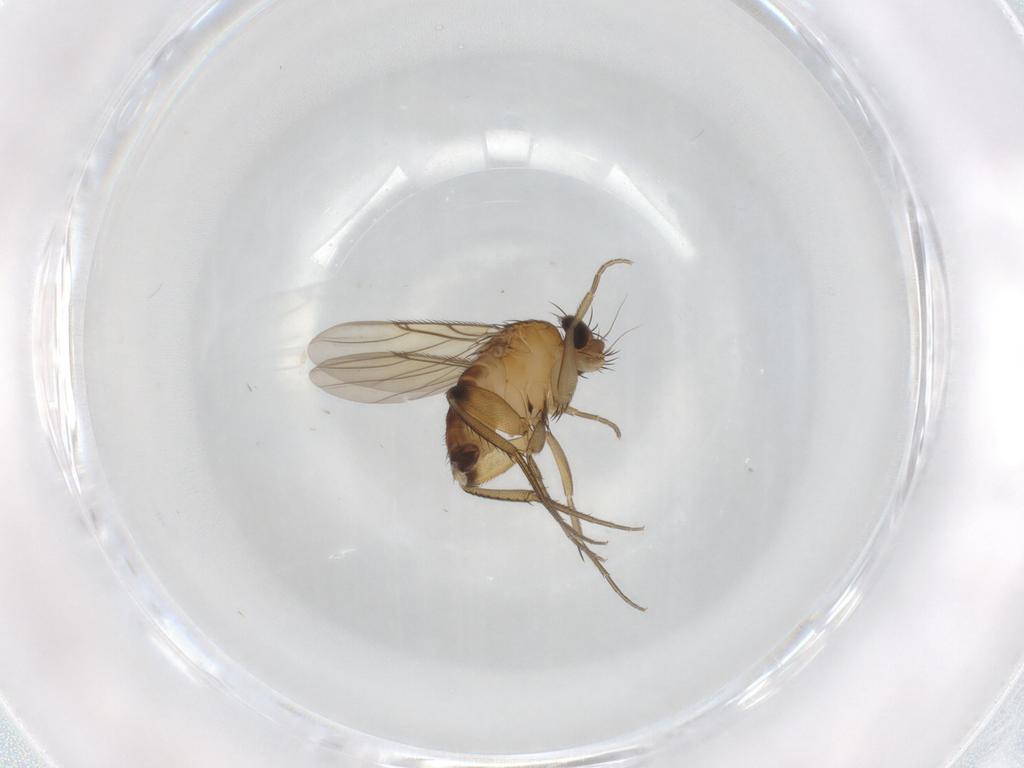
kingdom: Animalia
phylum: Arthropoda
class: Insecta
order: Diptera
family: Phoridae
